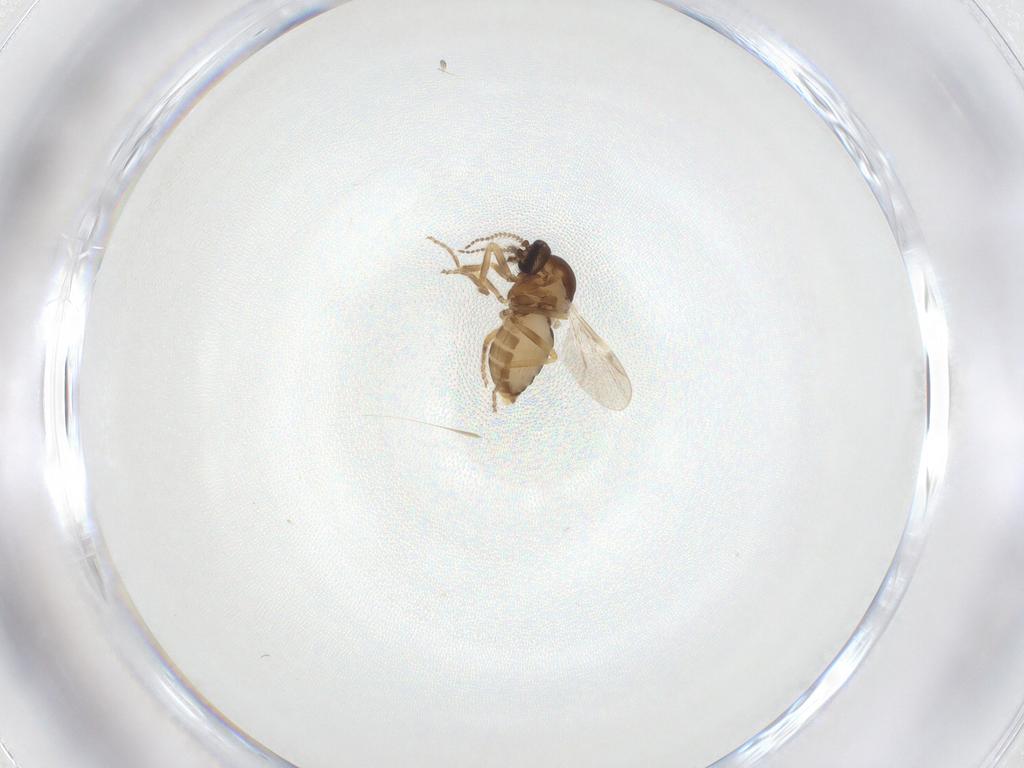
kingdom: Animalia
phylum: Arthropoda
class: Insecta
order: Diptera
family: Ceratopogonidae
